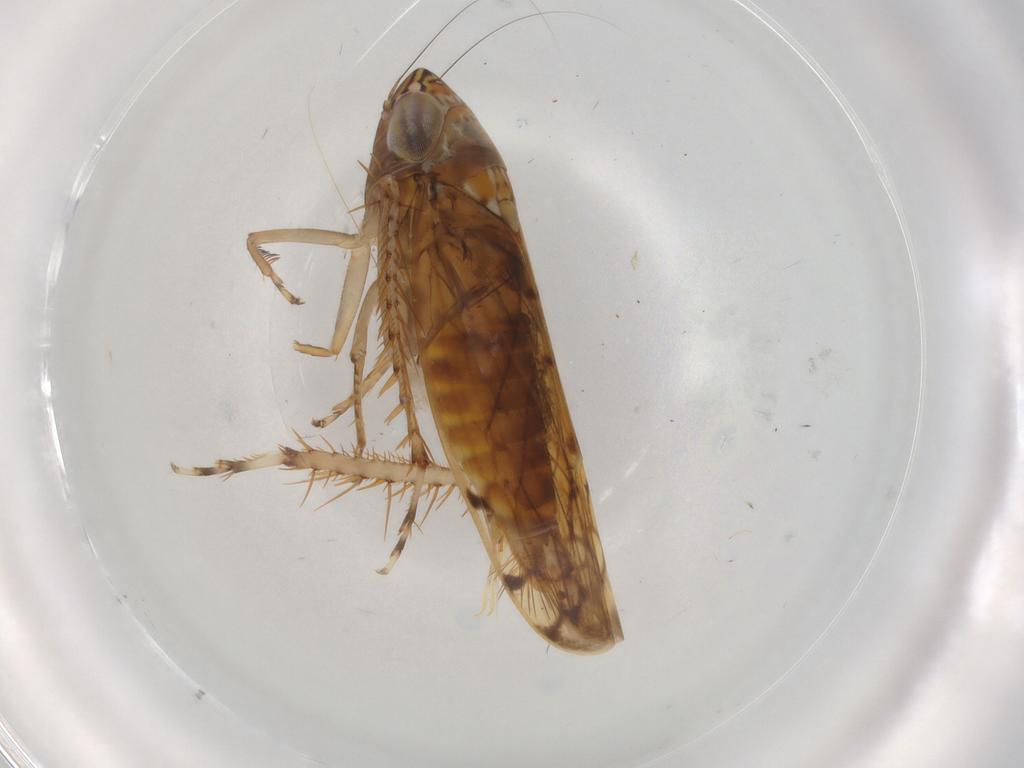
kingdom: Animalia
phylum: Arthropoda
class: Insecta
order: Hemiptera
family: Cicadellidae
